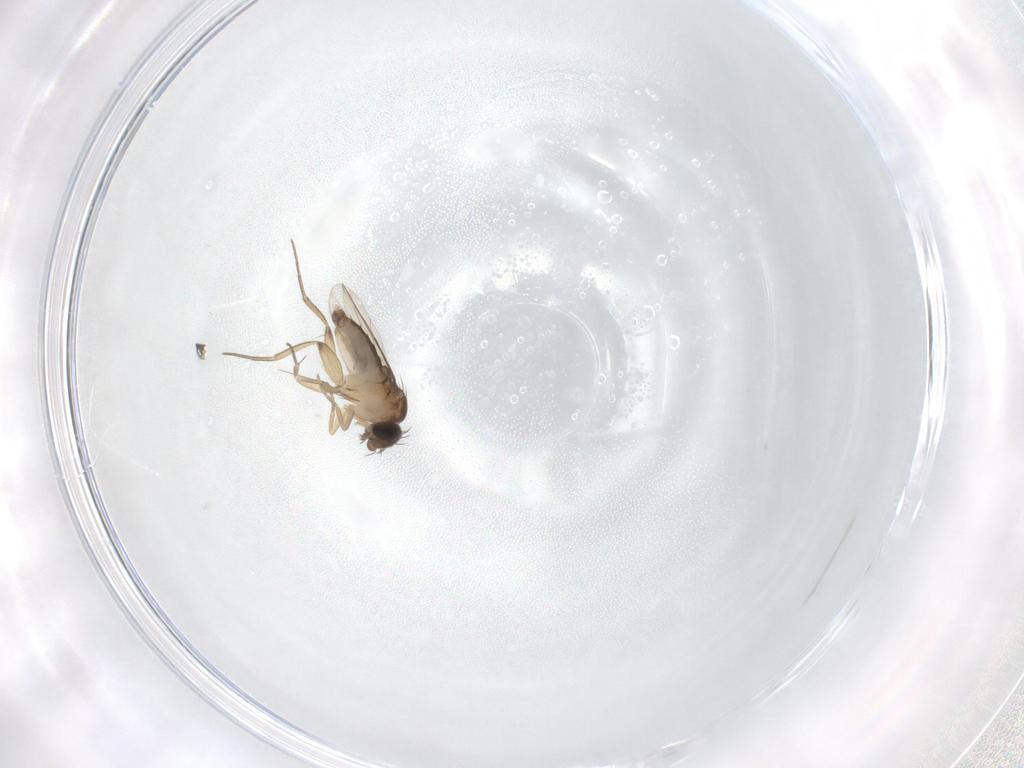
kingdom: Animalia
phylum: Arthropoda
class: Insecta
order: Diptera
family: Phoridae
